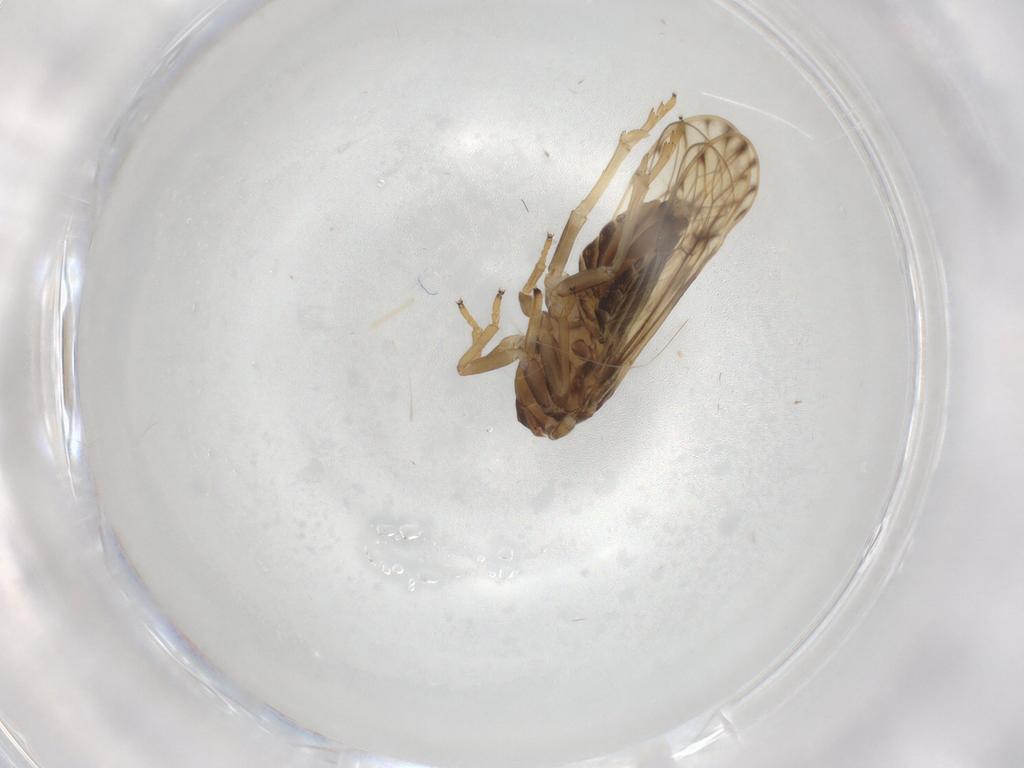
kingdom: Animalia
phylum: Arthropoda
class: Insecta
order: Hemiptera
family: Delphacidae
